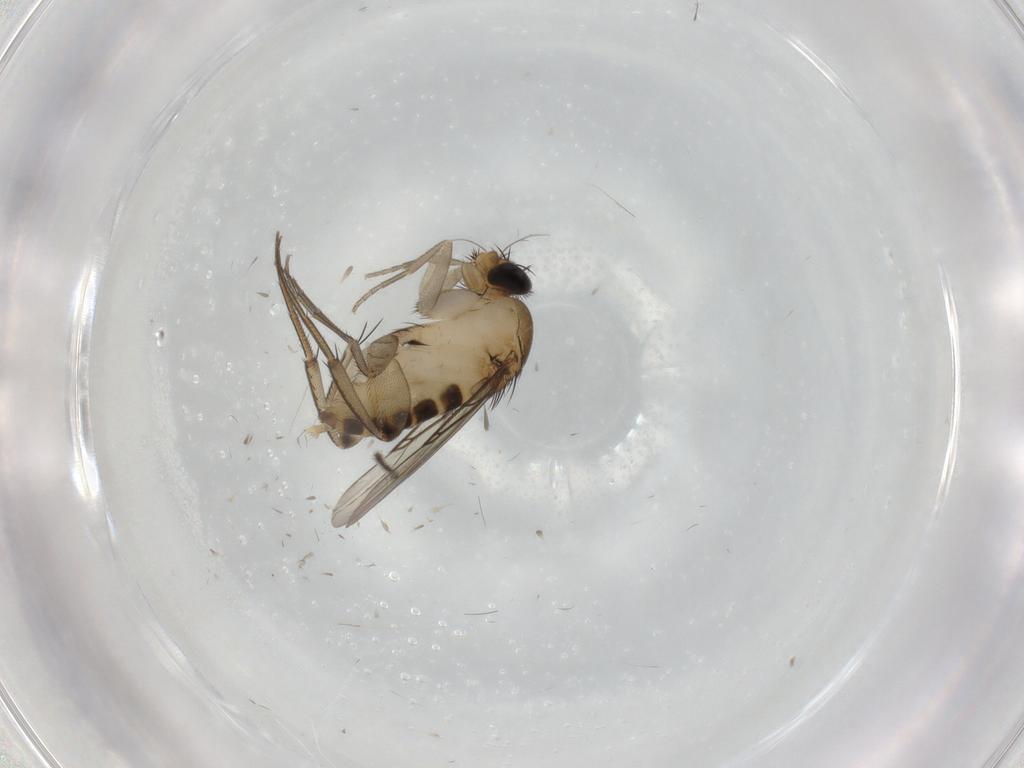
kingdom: Animalia
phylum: Arthropoda
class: Insecta
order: Diptera
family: Phoridae
